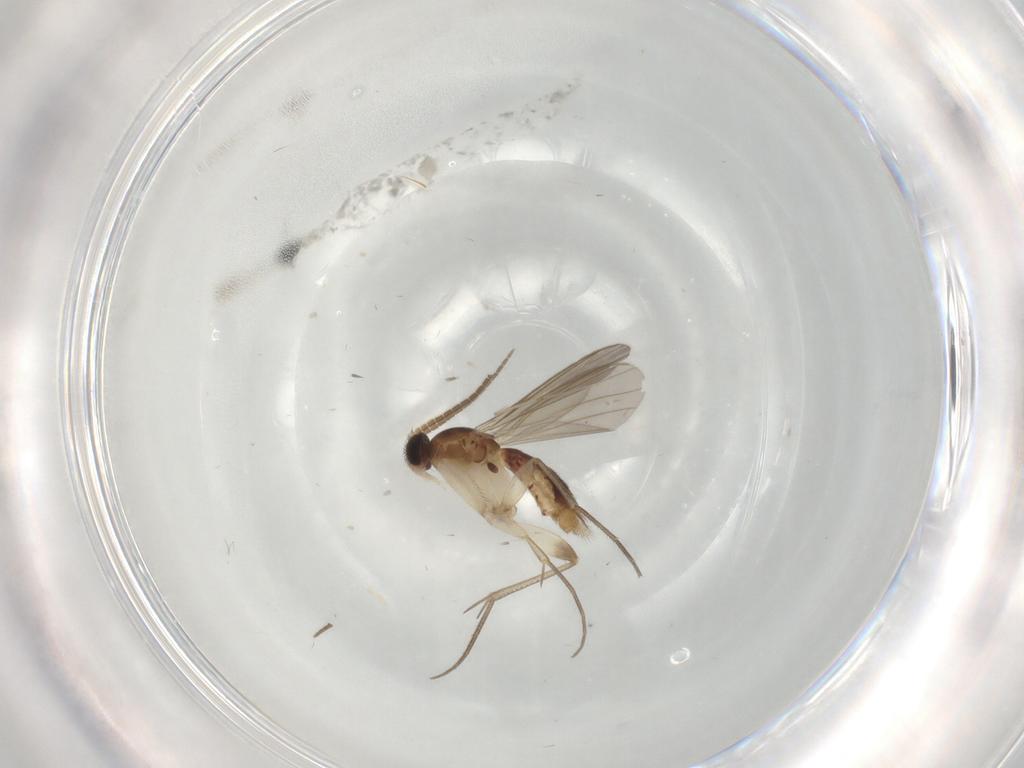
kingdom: Animalia
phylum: Arthropoda
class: Insecta
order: Diptera
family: Mycetophilidae
